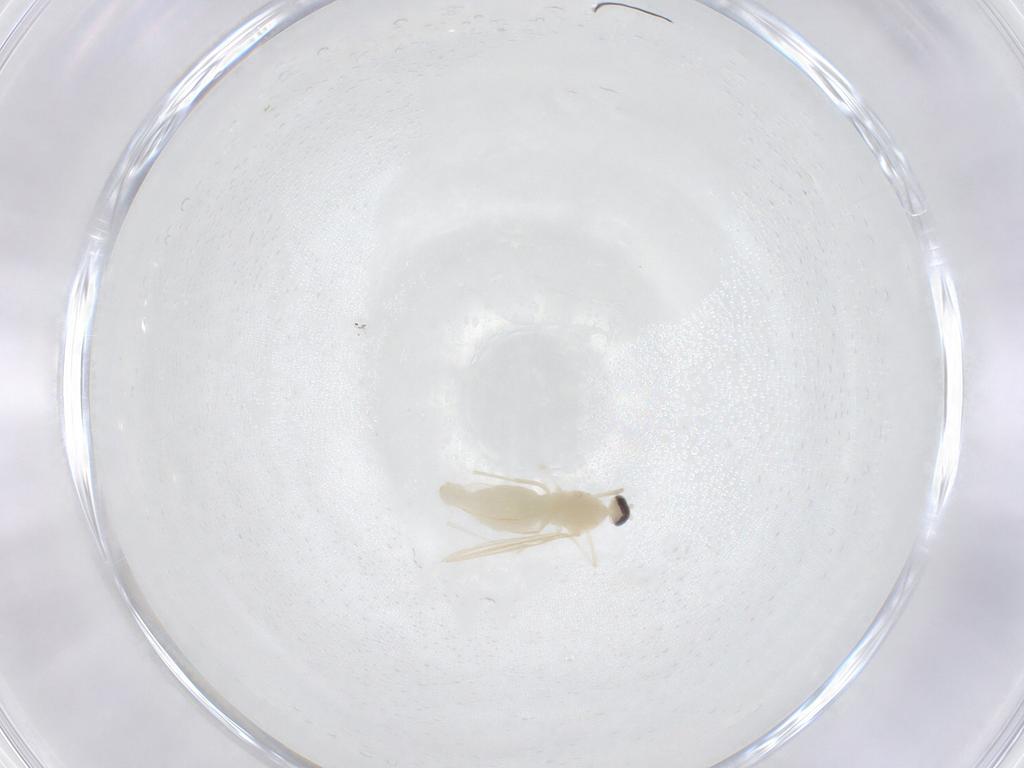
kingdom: Animalia
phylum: Arthropoda
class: Insecta
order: Diptera
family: Cecidomyiidae
